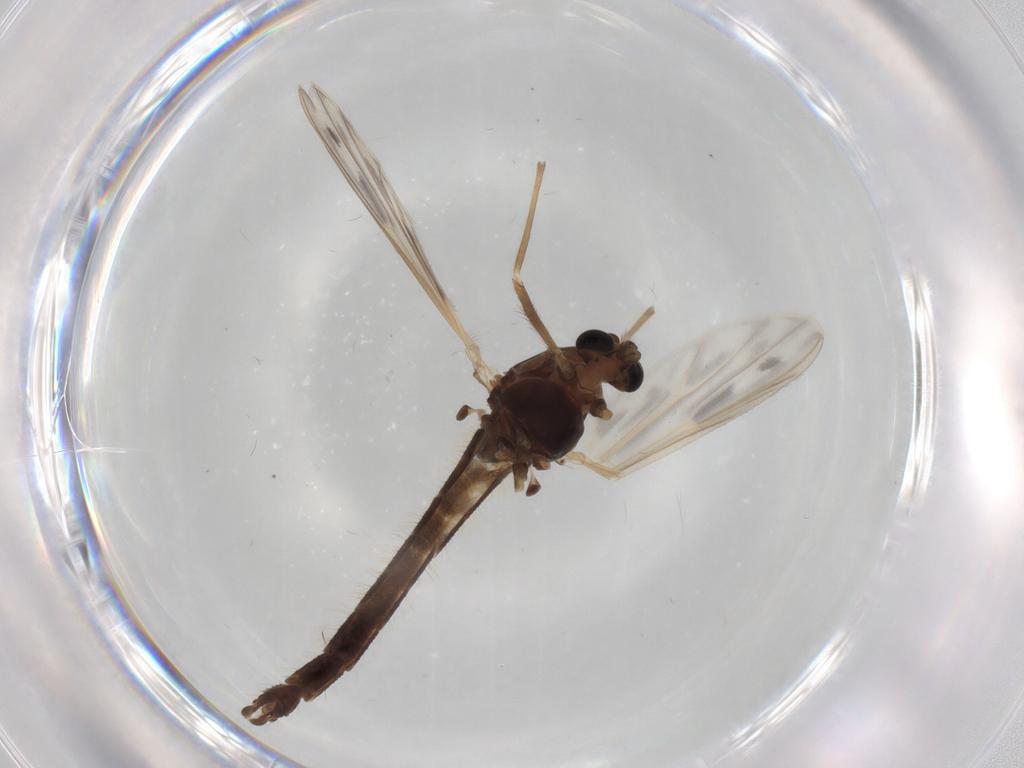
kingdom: Animalia
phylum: Arthropoda
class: Insecta
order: Diptera
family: Chironomidae
